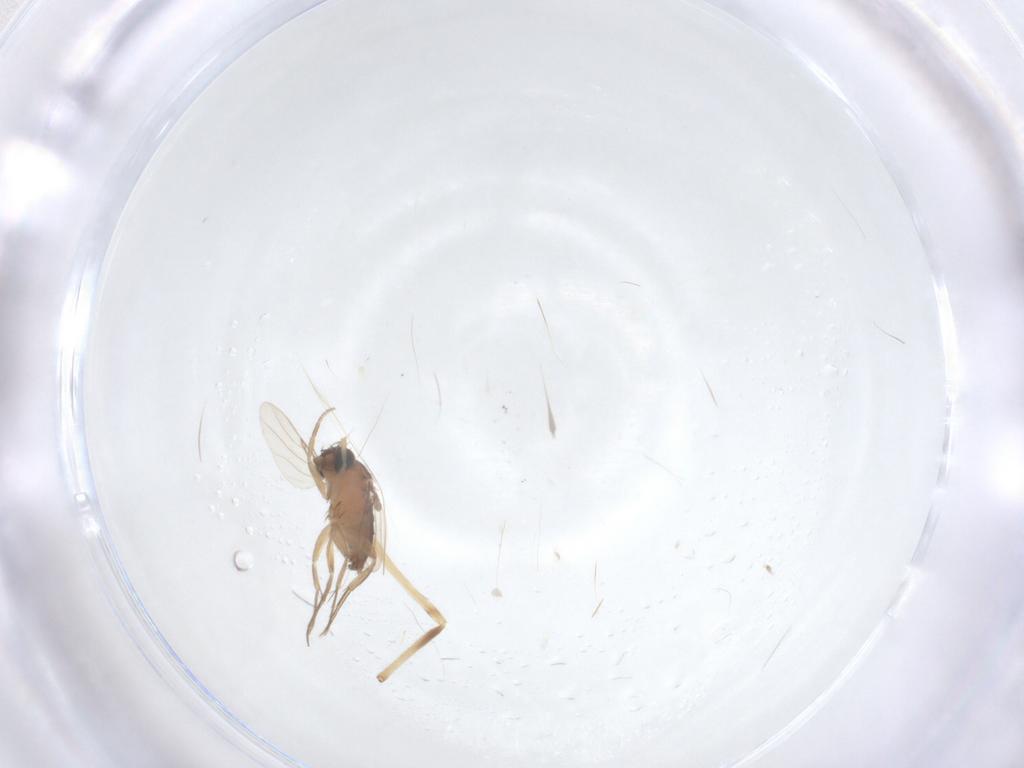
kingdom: Animalia
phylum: Arthropoda
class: Insecta
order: Diptera
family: Chironomidae
